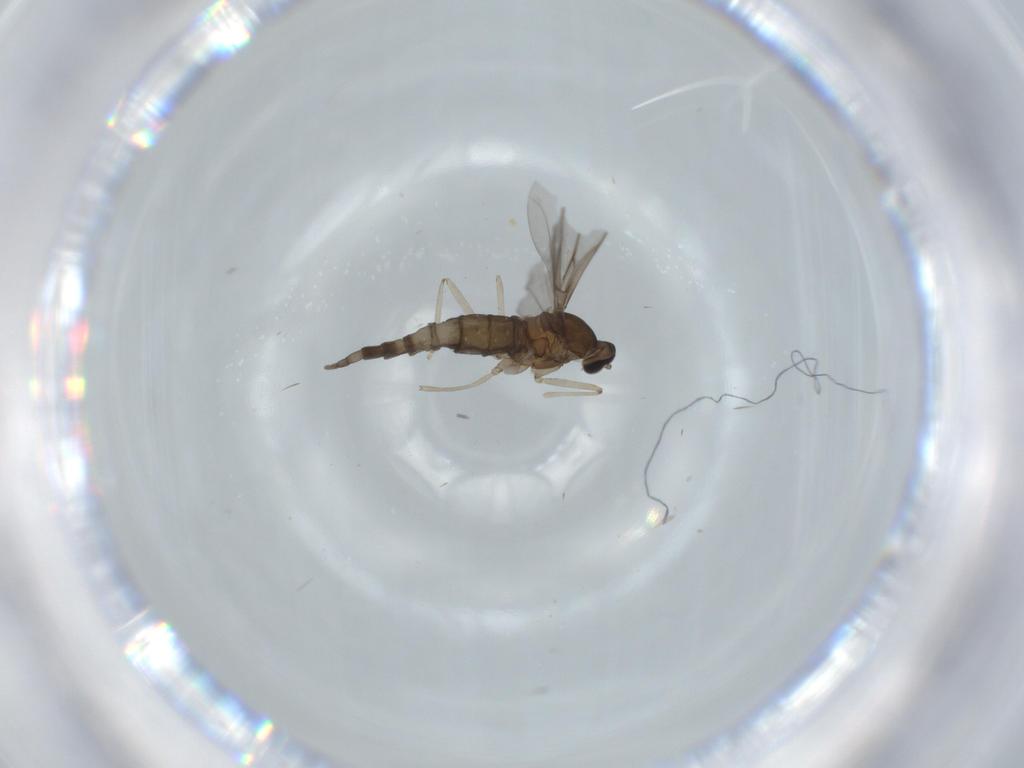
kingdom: Animalia
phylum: Arthropoda
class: Insecta
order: Diptera
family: Cecidomyiidae
